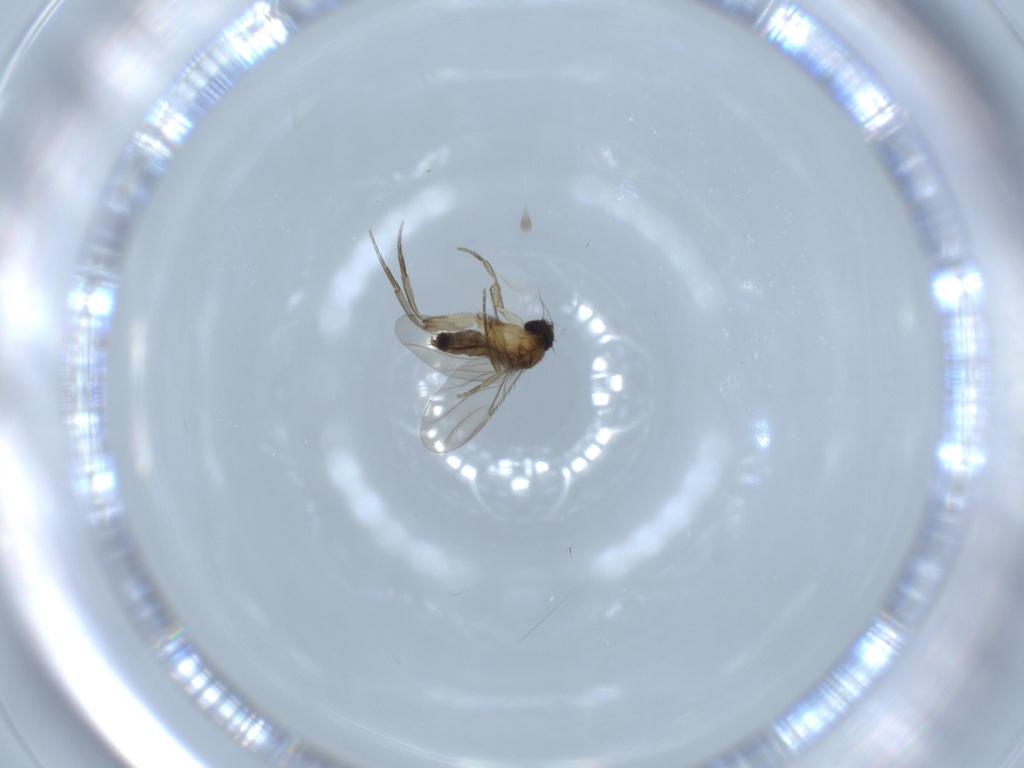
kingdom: Animalia
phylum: Arthropoda
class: Insecta
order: Diptera
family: Phoridae
